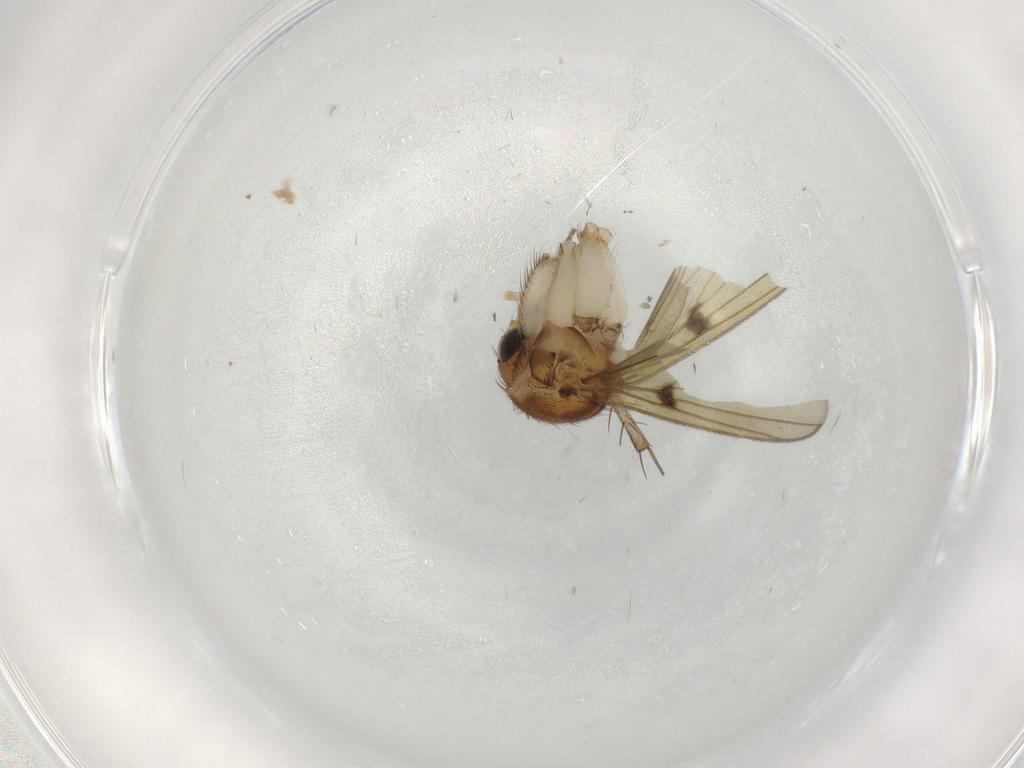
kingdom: Animalia
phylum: Arthropoda
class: Insecta
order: Diptera
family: Muscidae
